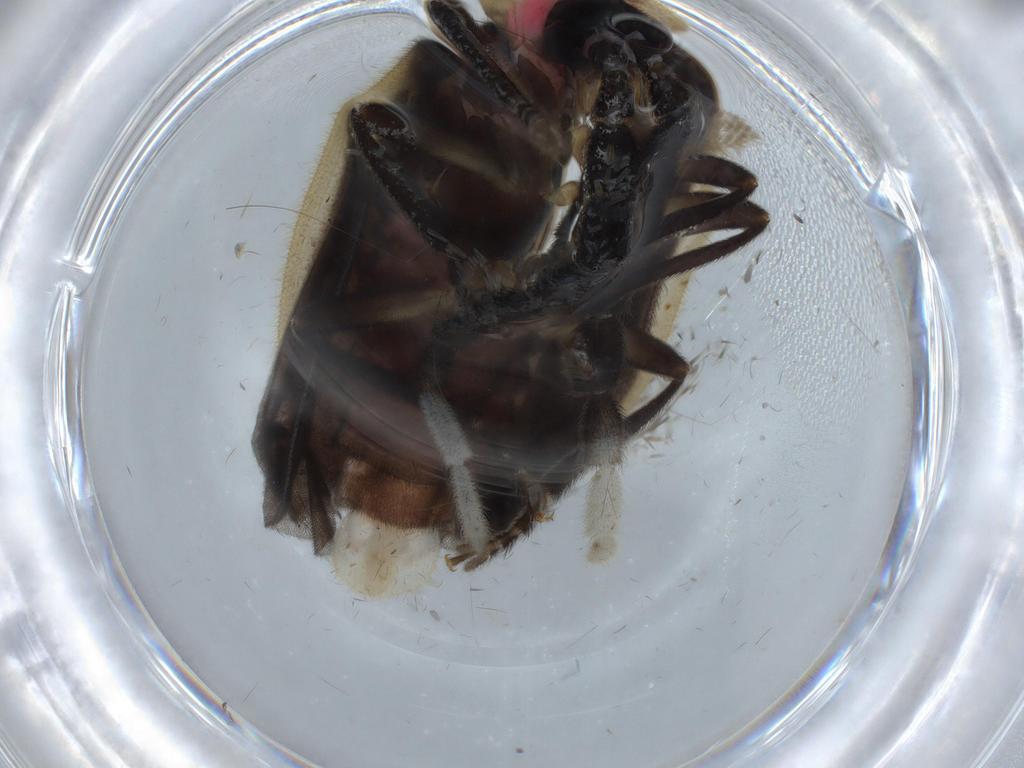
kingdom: Animalia
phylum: Arthropoda
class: Insecta
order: Coleoptera
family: Lampyridae
